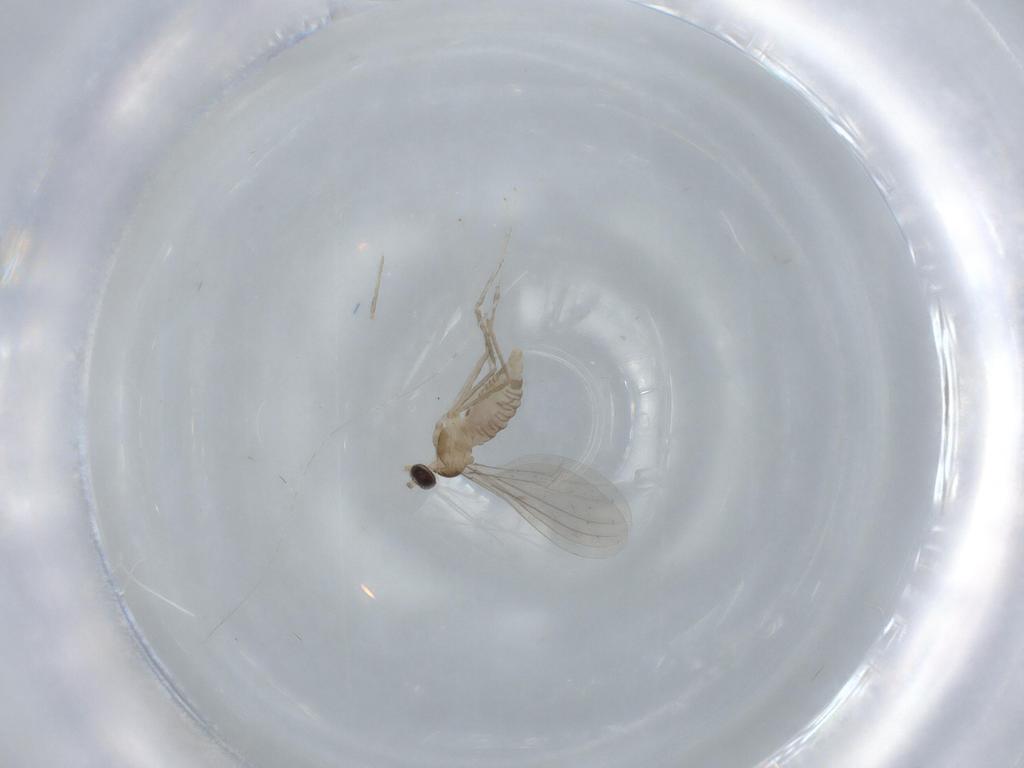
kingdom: Animalia
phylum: Arthropoda
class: Insecta
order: Diptera
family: Cecidomyiidae
